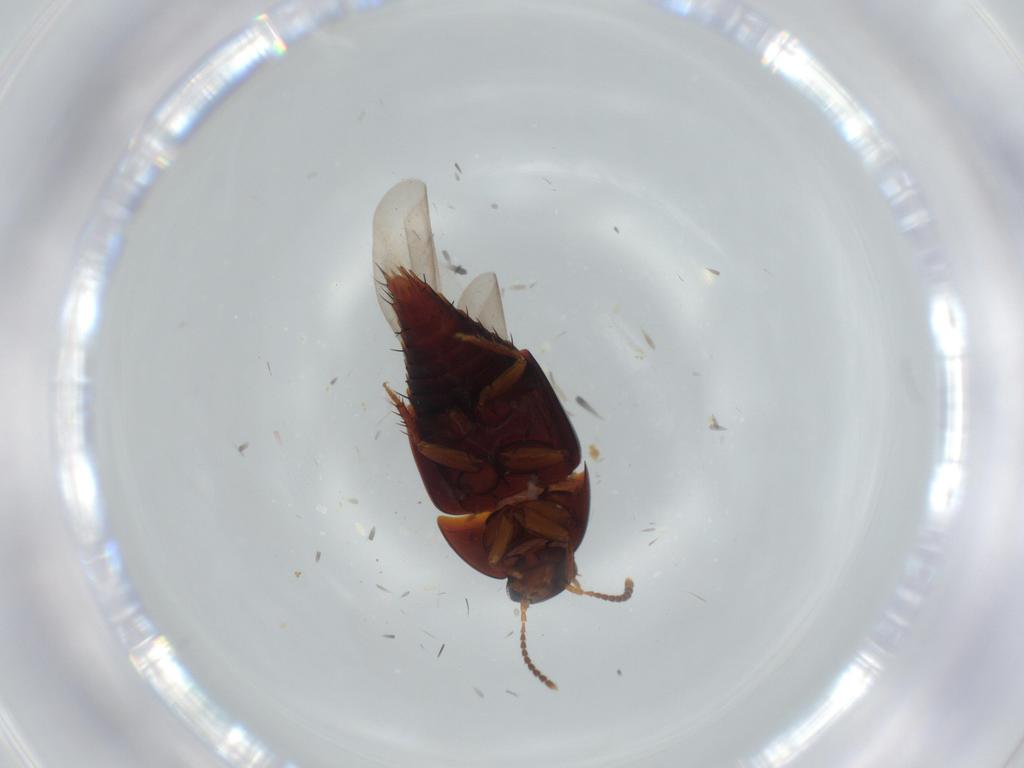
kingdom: Animalia
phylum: Arthropoda
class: Insecta
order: Coleoptera
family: Staphylinidae
